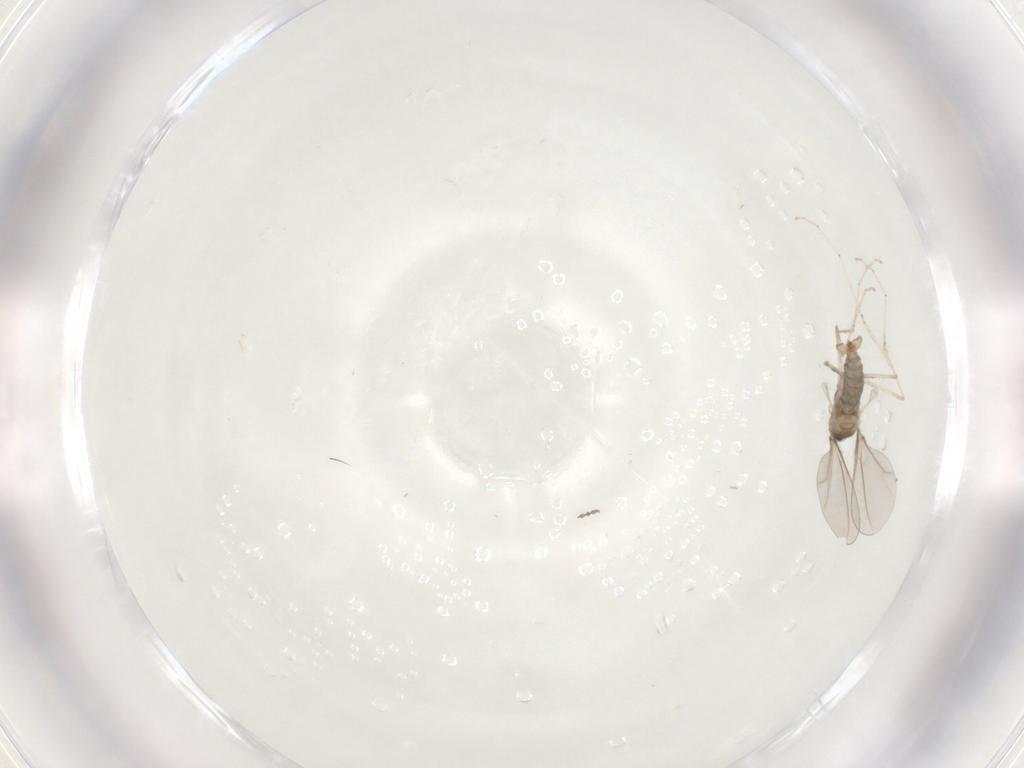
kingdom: Animalia
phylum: Arthropoda
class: Insecta
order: Diptera
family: Cecidomyiidae
